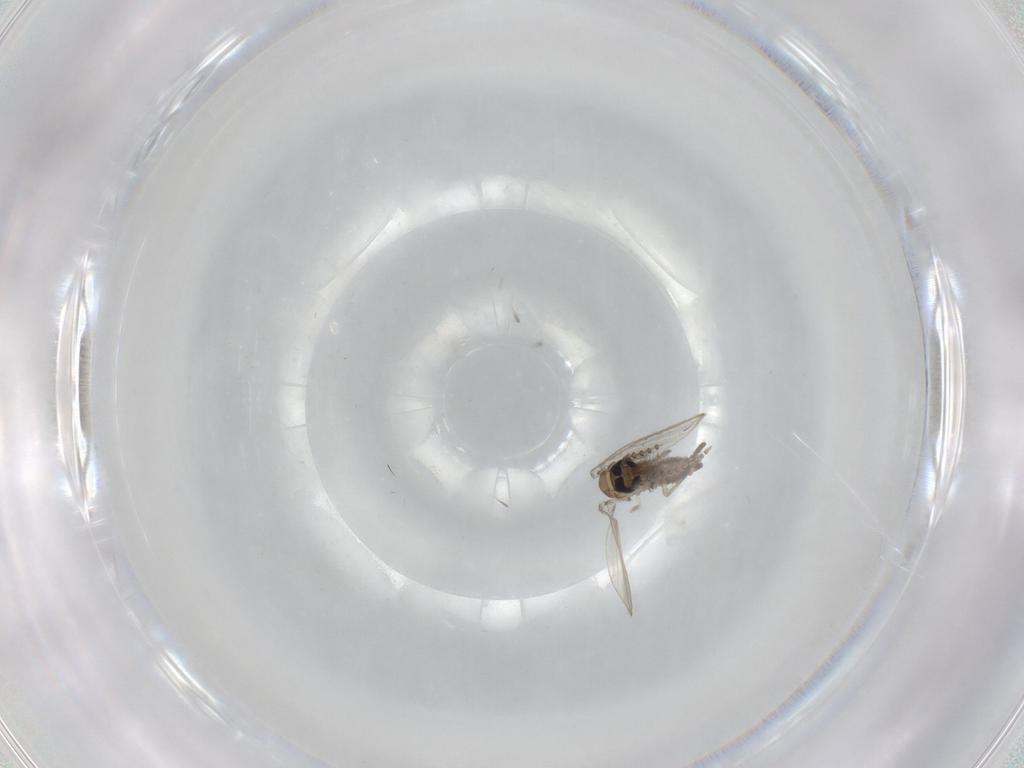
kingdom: Animalia
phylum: Arthropoda
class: Insecta
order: Diptera
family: Psychodidae
